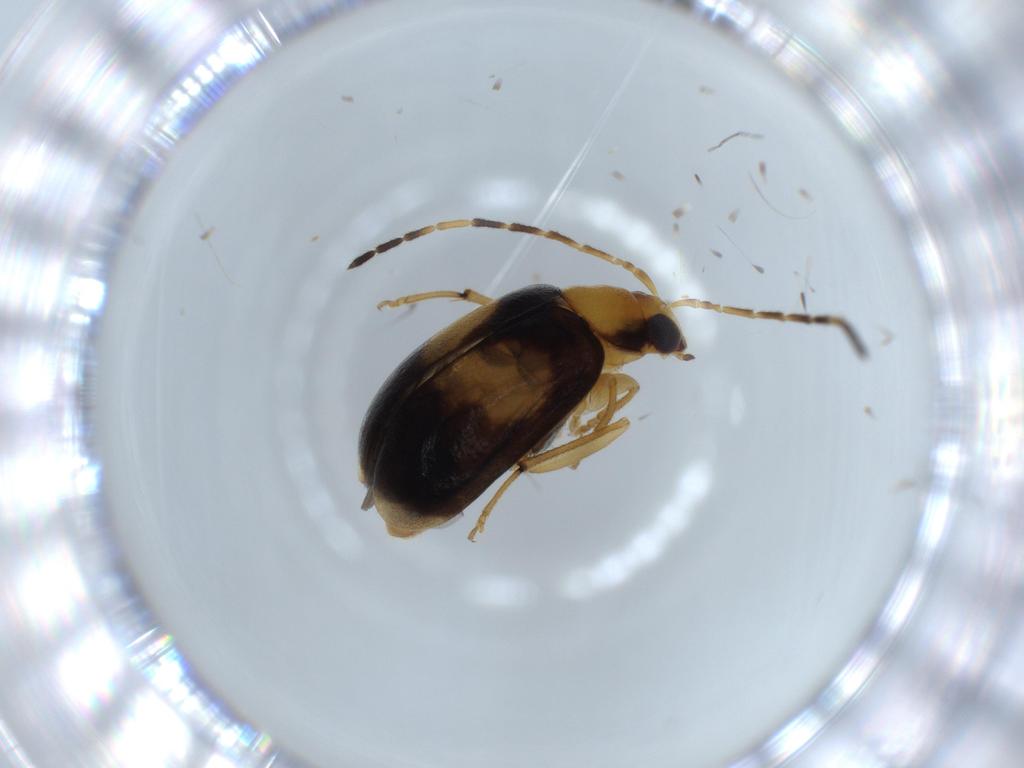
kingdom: Animalia
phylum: Arthropoda
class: Insecta
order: Coleoptera
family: Chrysomelidae
